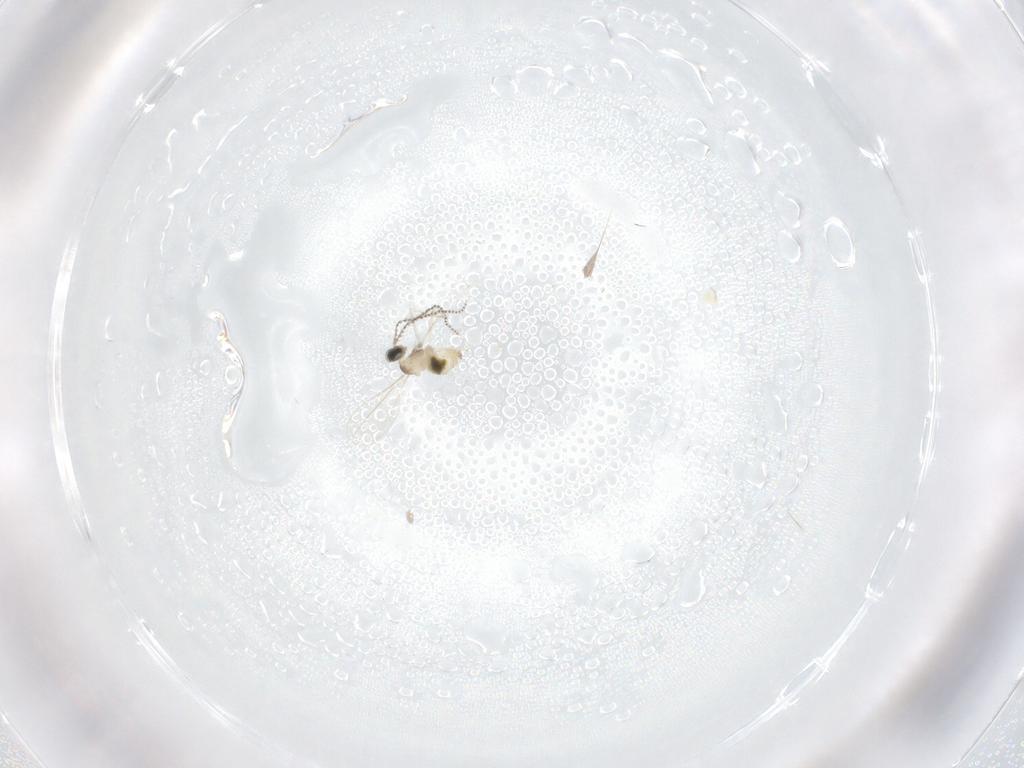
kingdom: Animalia
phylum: Arthropoda
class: Insecta
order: Diptera
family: Cecidomyiidae
